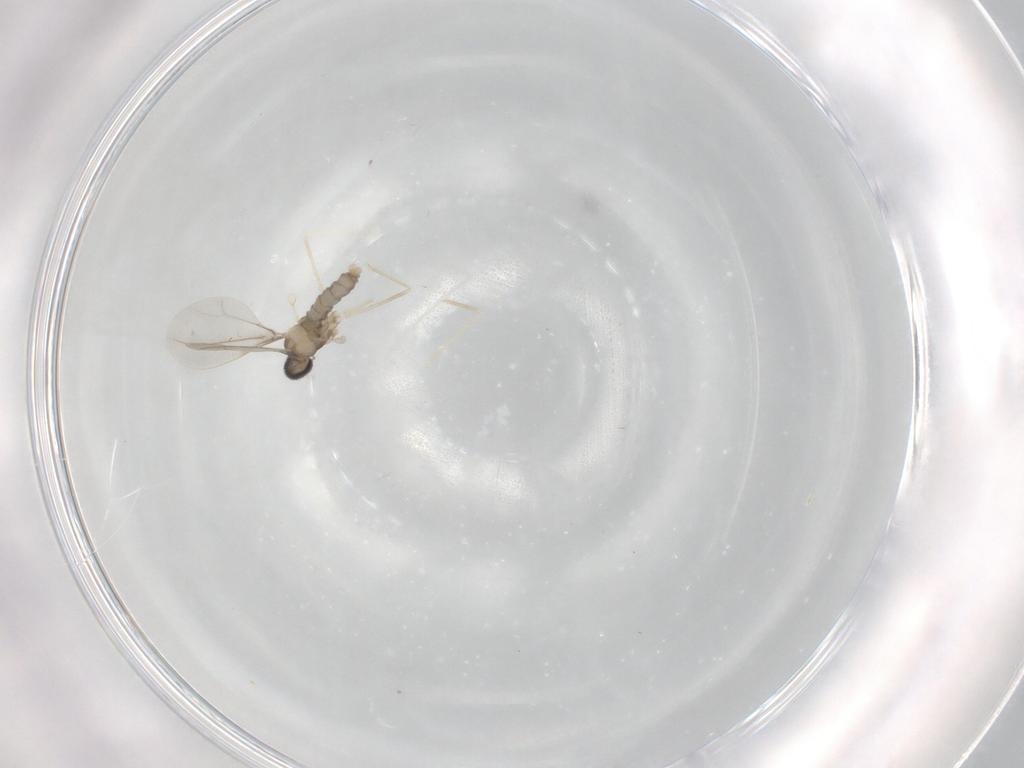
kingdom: Animalia
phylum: Arthropoda
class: Insecta
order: Diptera
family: Cecidomyiidae
